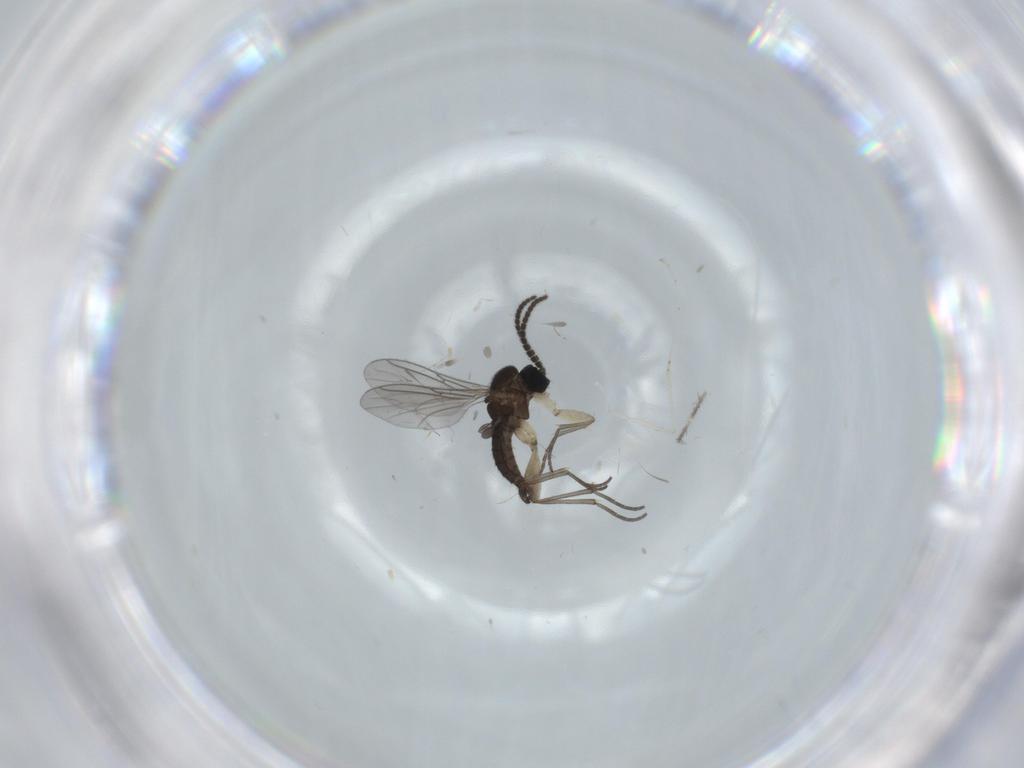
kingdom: Animalia
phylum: Arthropoda
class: Insecta
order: Diptera
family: Sciaridae
